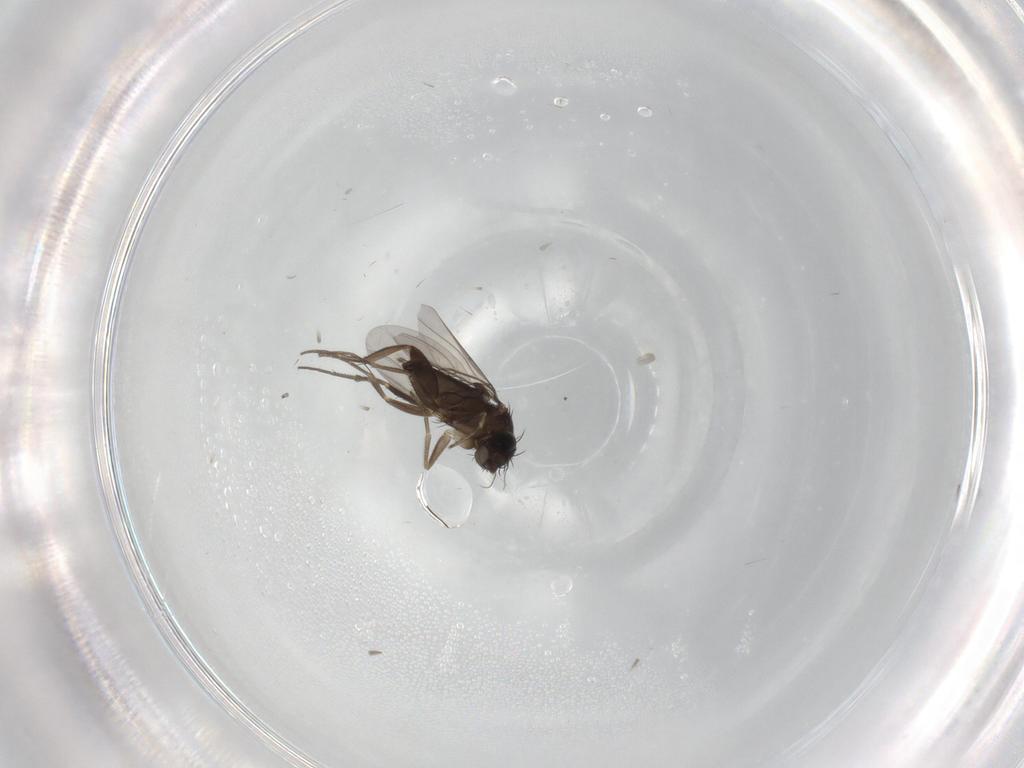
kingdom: Animalia
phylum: Arthropoda
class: Insecta
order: Diptera
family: Phoridae
